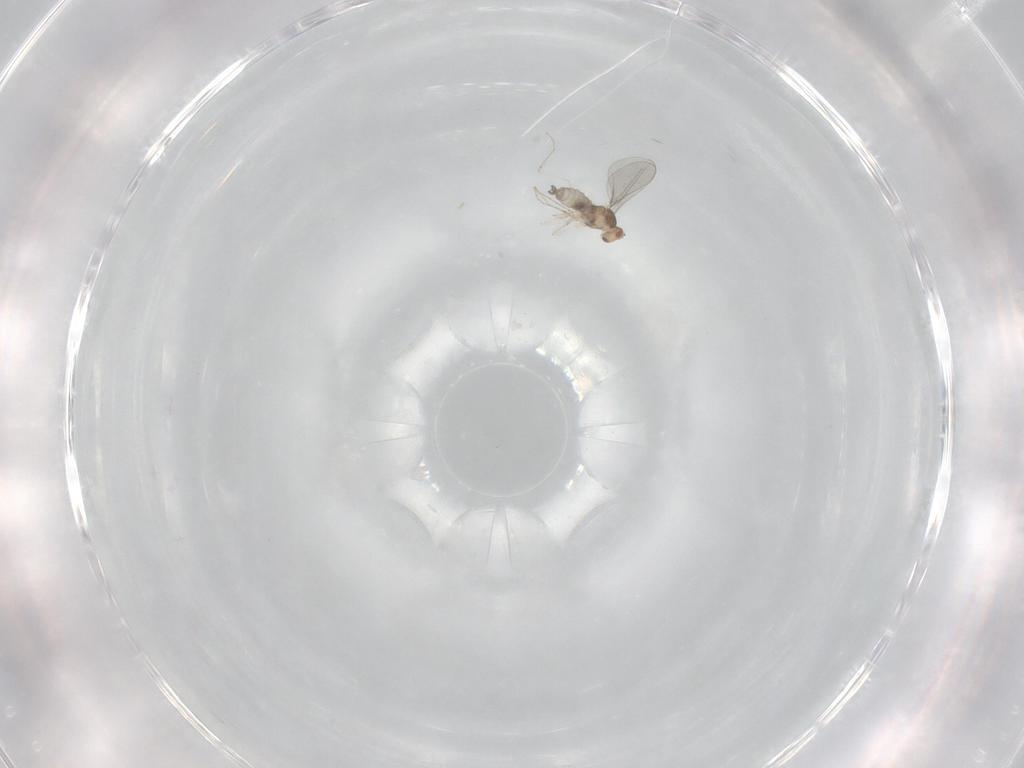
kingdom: Animalia
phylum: Arthropoda
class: Insecta
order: Diptera
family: Cecidomyiidae
